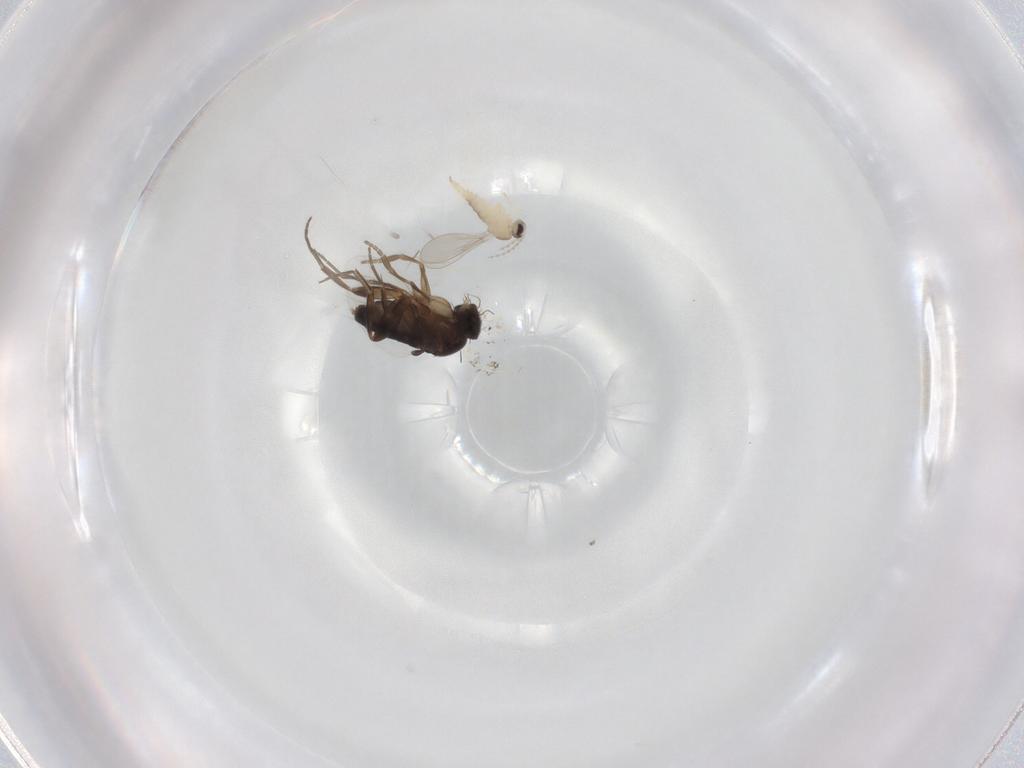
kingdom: Animalia
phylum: Arthropoda
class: Insecta
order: Diptera
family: Cecidomyiidae
